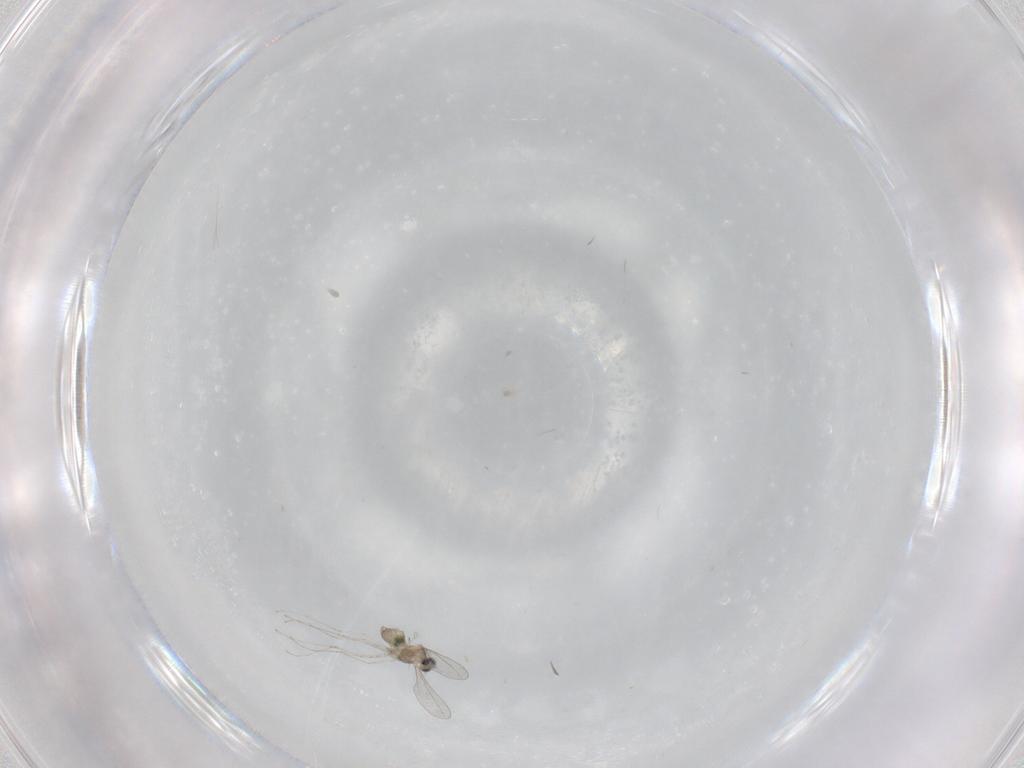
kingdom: Animalia
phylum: Arthropoda
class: Insecta
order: Diptera
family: Cecidomyiidae
